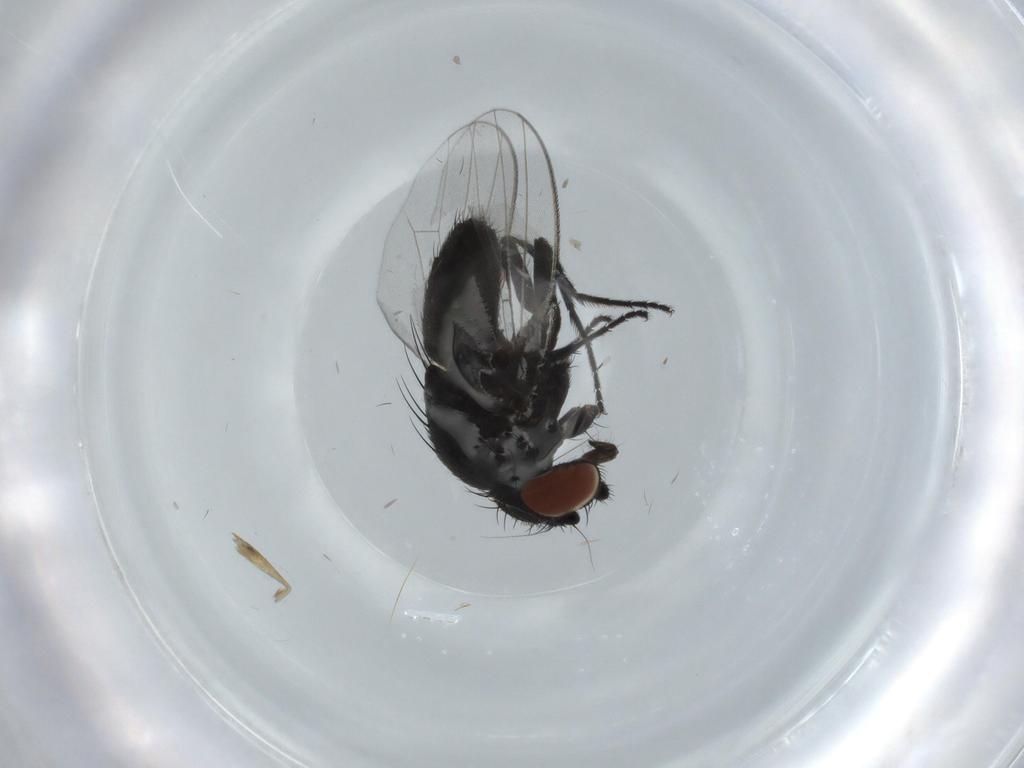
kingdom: Animalia
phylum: Arthropoda
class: Insecta
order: Diptera
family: Milichiidae
